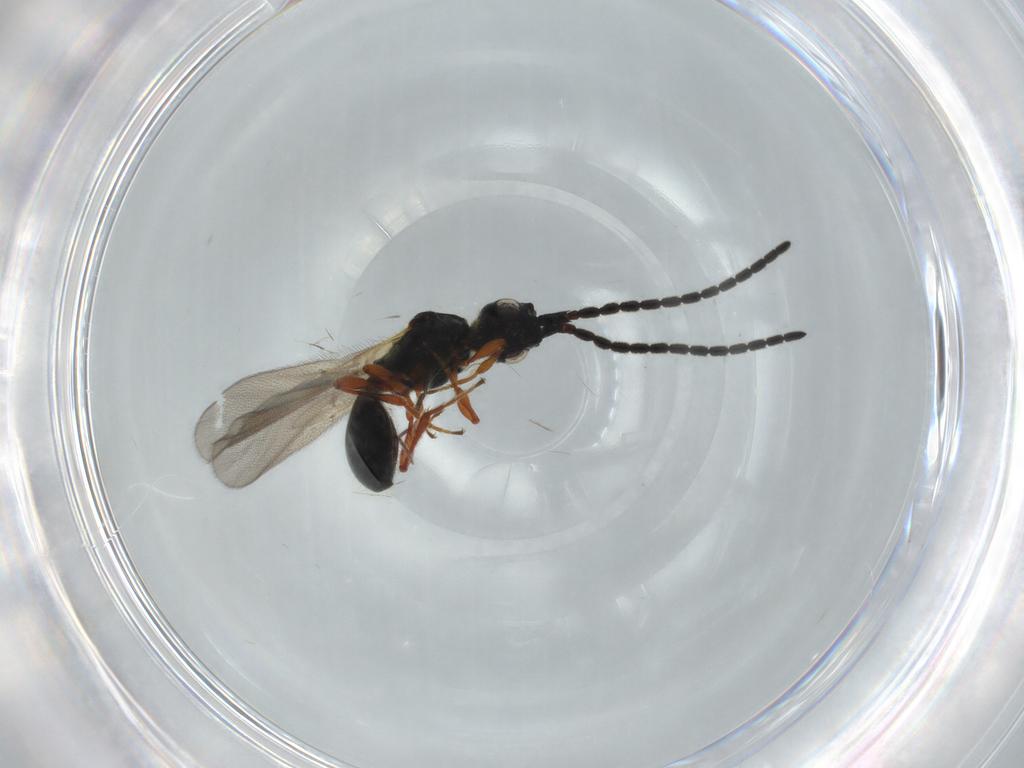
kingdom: Animalia
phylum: Arthropoda
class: Insecta
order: Hymenoptera
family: Diapriidae
